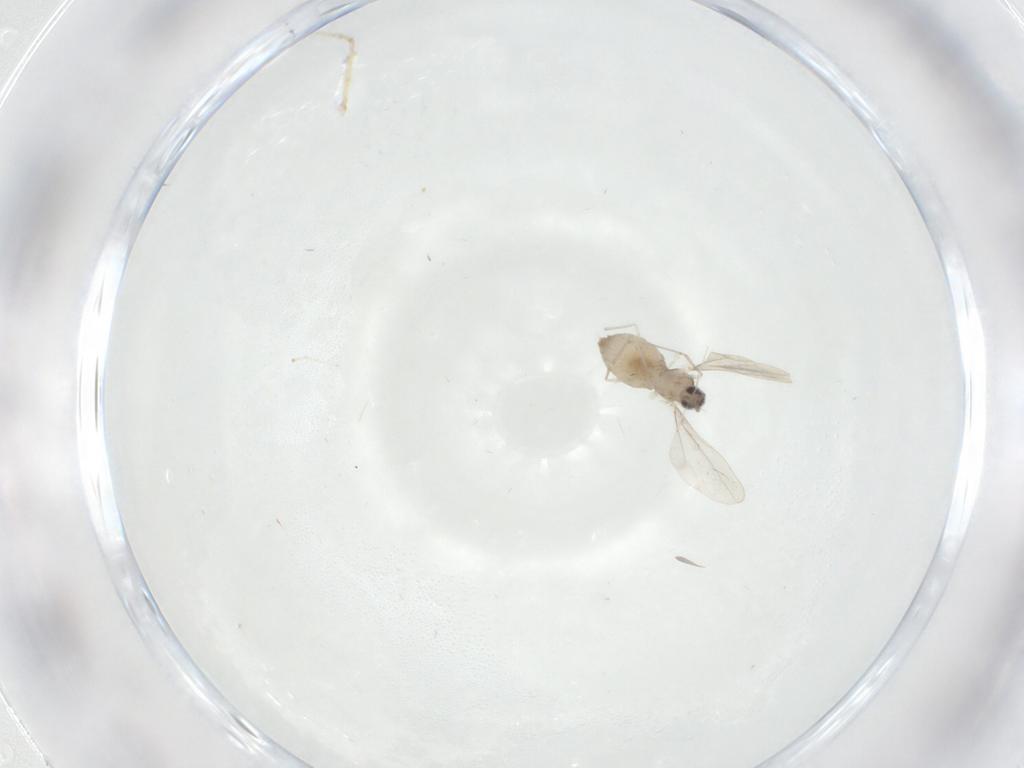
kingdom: Animalia
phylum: Arthropoda
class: Insecta
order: Diptera
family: Cecidomyiidae
